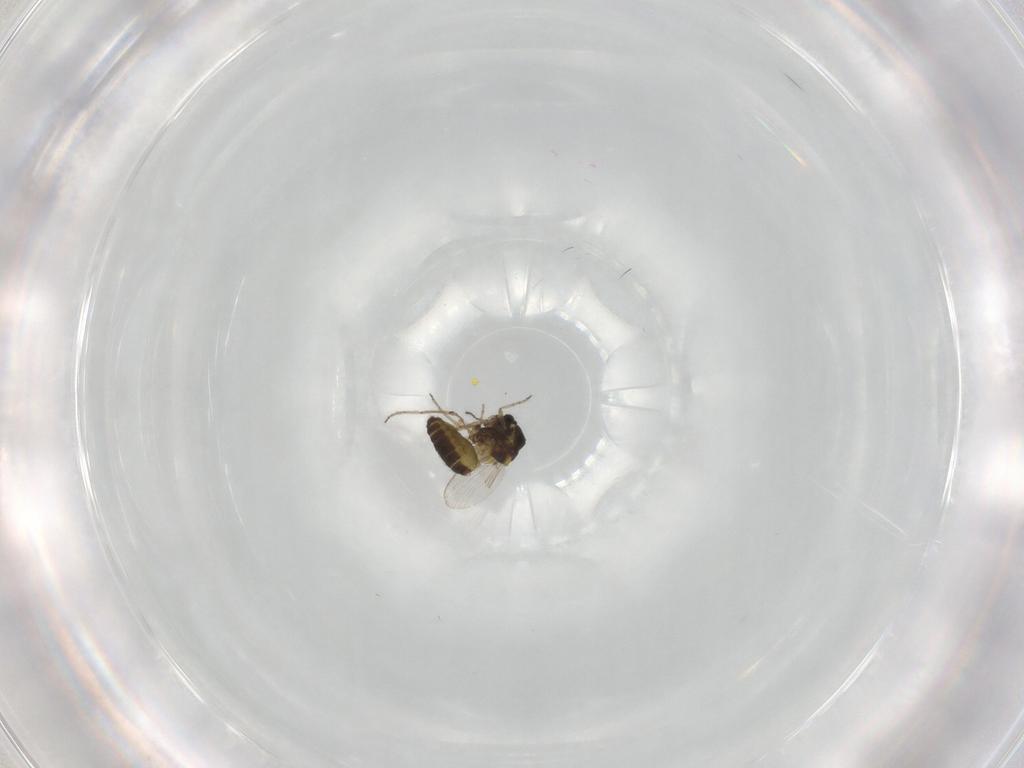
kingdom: Animalia
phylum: Arthropoda
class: Insecta
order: Diptera
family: Ceratopogonidae
